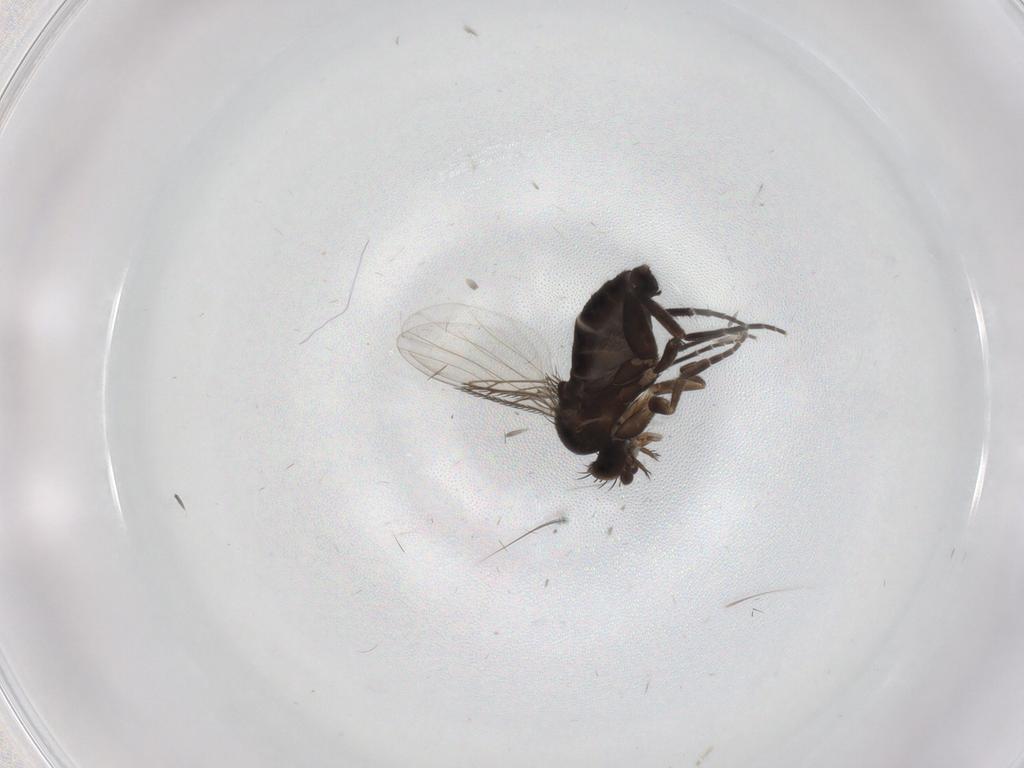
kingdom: Animalia
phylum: Arthropoda
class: Insecta
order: Diptera
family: Phoridae
